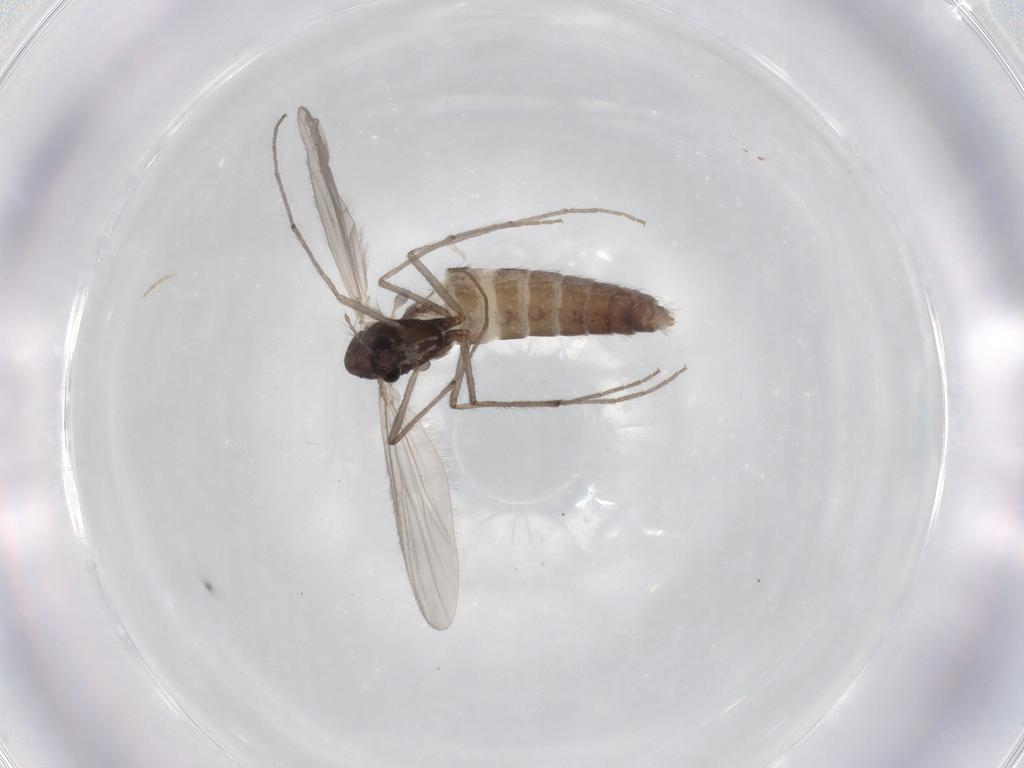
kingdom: Animalia
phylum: Arthropoda
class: Insecta
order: Diptera
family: Chironomidae
